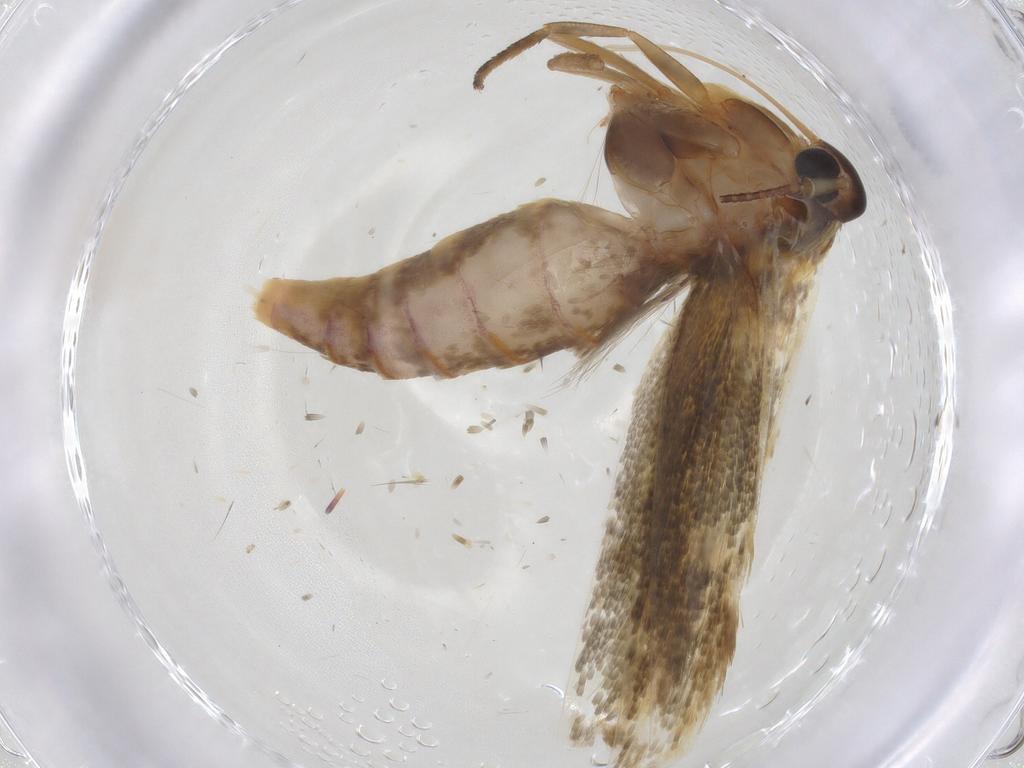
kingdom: Animalia
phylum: Arthropoda
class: Insecta
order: Lepidoptera
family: Stathmopodidae
